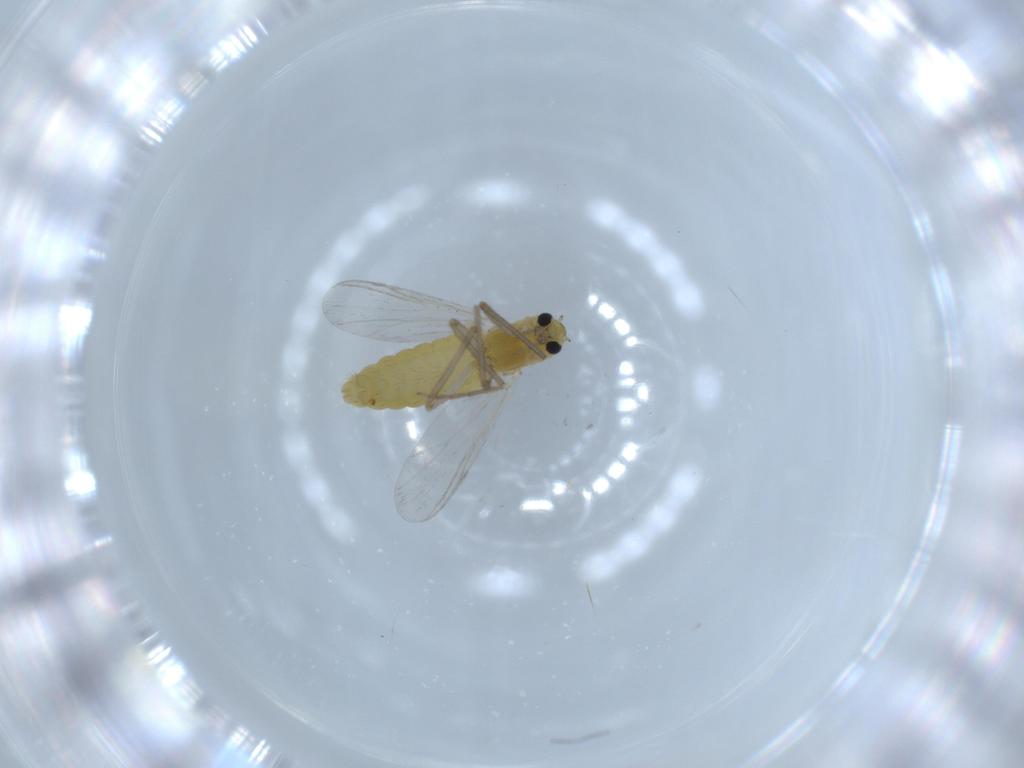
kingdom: Animalia
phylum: Arthropoda
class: Insecta
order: Diptera
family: Chironomidae
